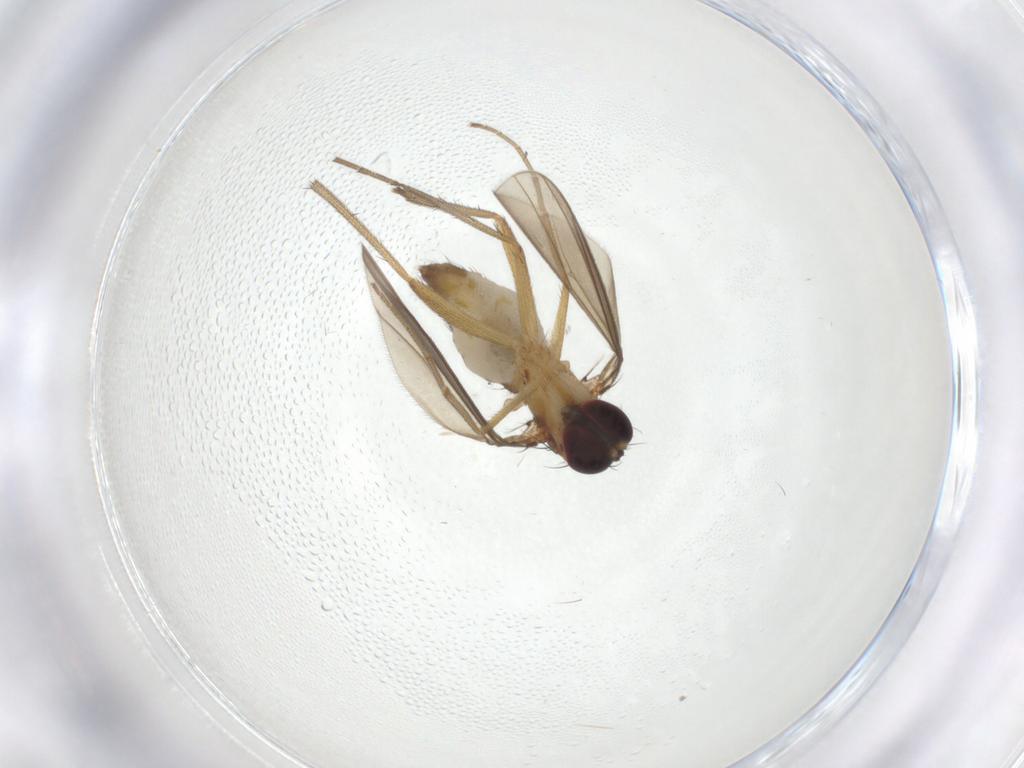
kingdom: Animalia
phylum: Arthropoda
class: Insecta
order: Diptera
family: Dolichopodidae
